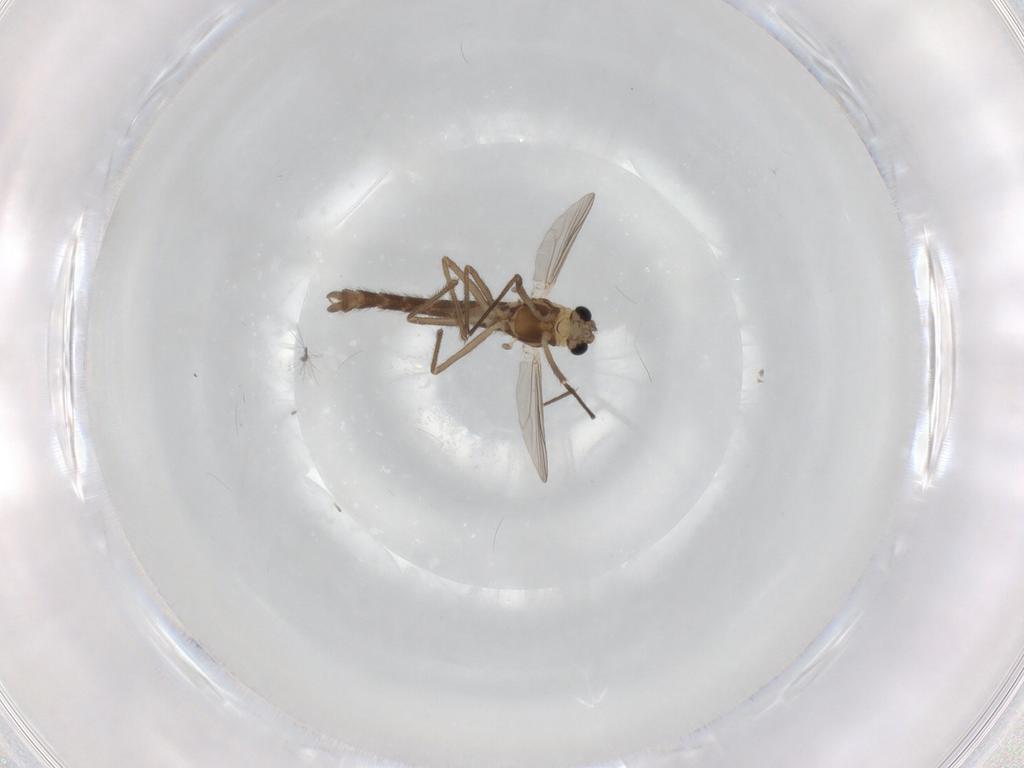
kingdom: Animalia
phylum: Arthropoda
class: Insecta
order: Diptera
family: Chironomidae
